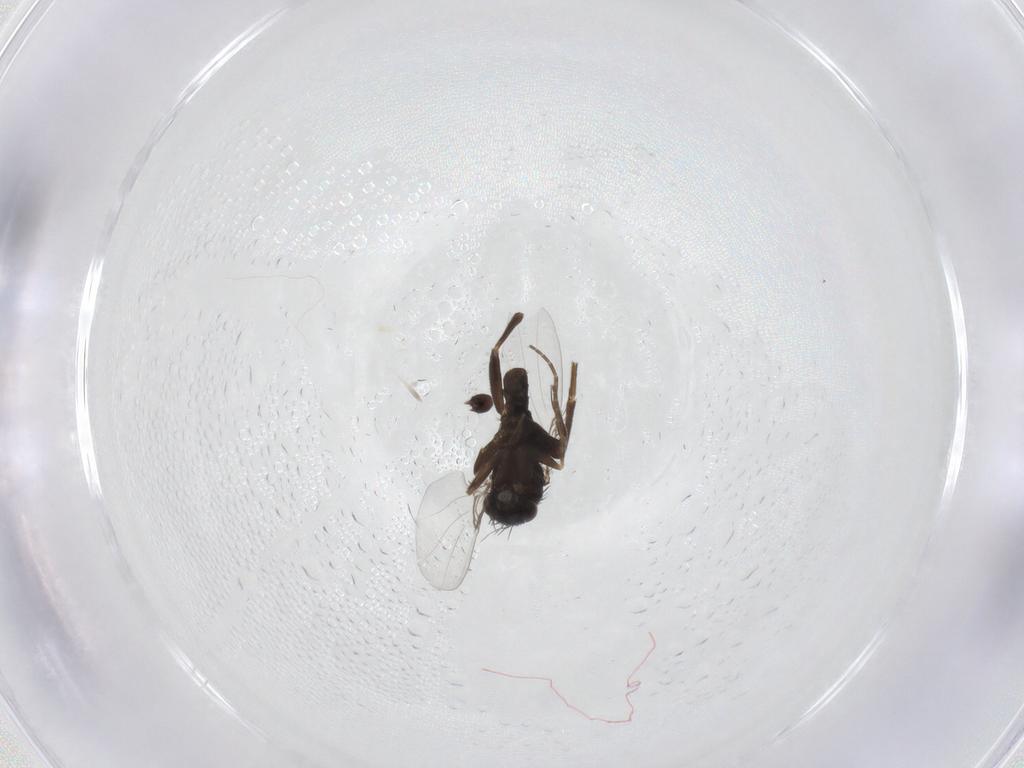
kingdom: Animalia
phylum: Arthropoda
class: Insecta
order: Diptera
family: Phoridae
